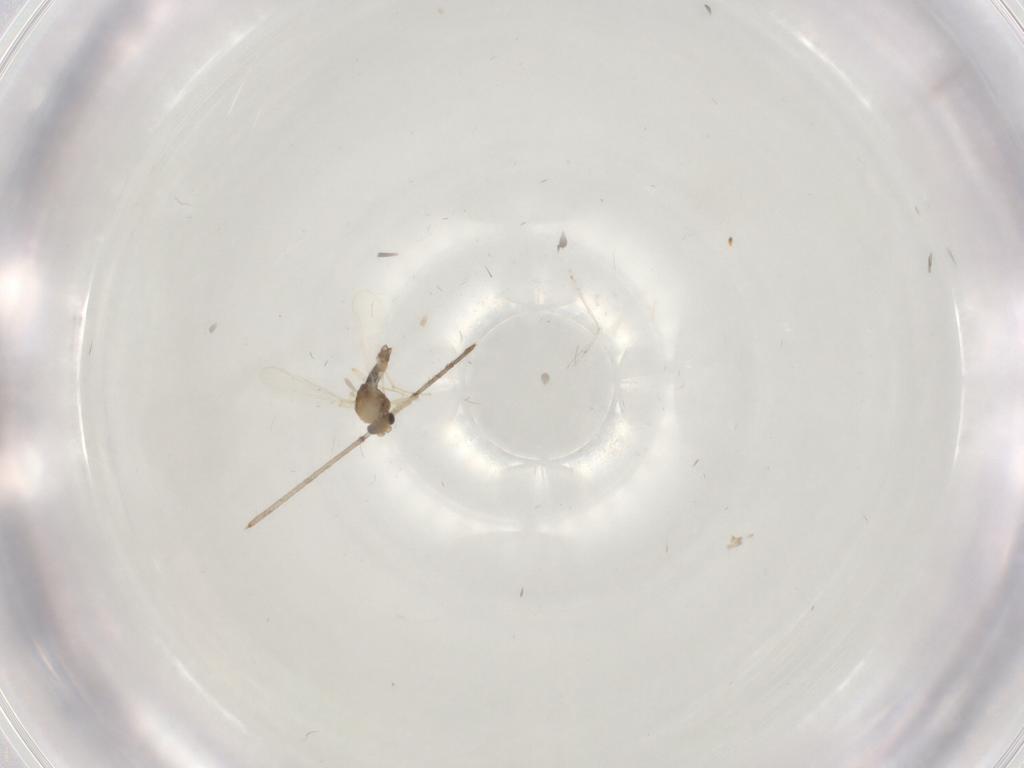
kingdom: Animalia
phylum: Arthropoda
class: Insecta
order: Diptera
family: Cecidomyiidae
